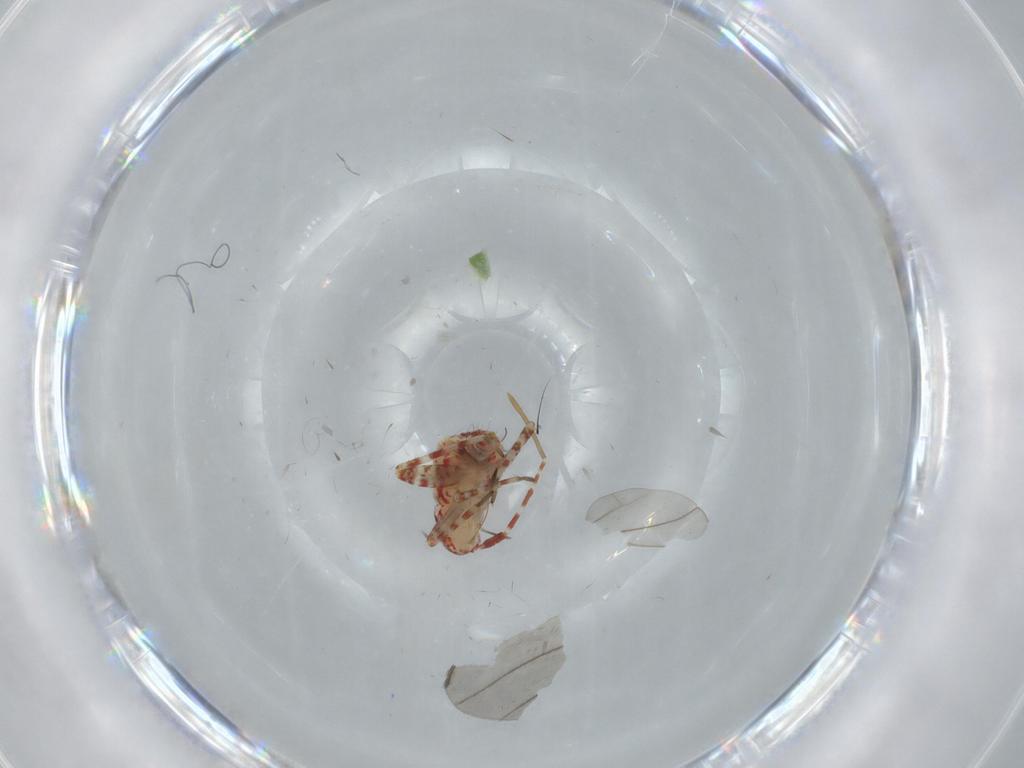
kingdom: Animalia
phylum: Arthropoda
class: Insecta
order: Hemiptera
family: Miridae
